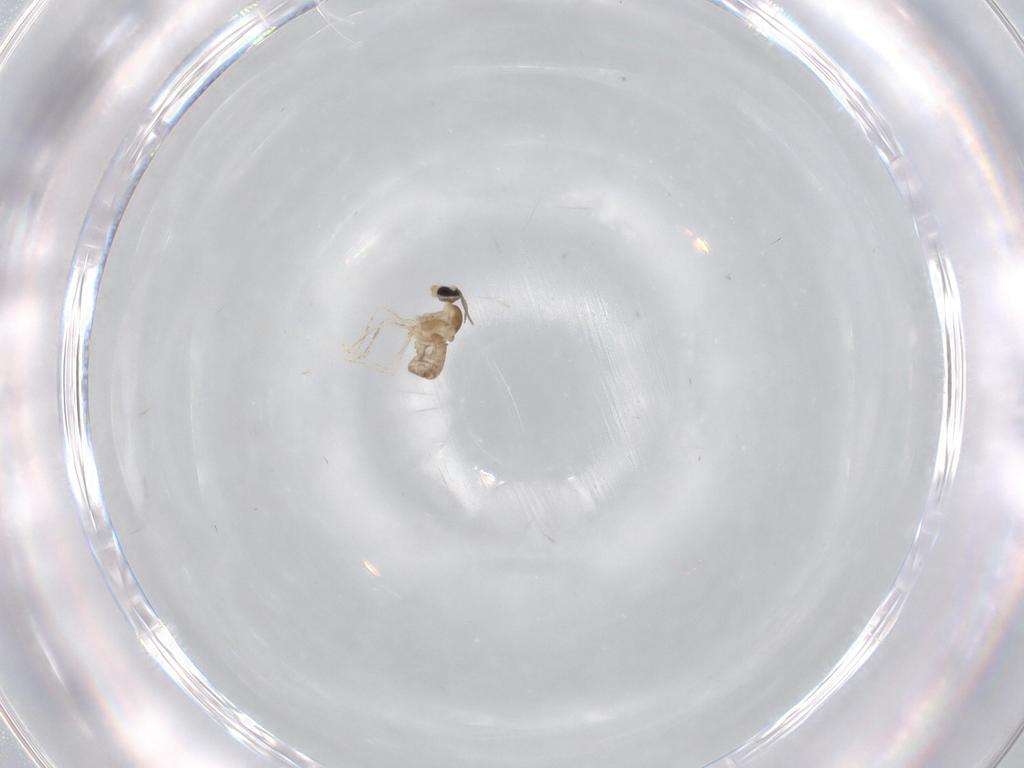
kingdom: Animalia
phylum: Arthropoda
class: Insecta
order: Diptera
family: Cecidomyiidae
